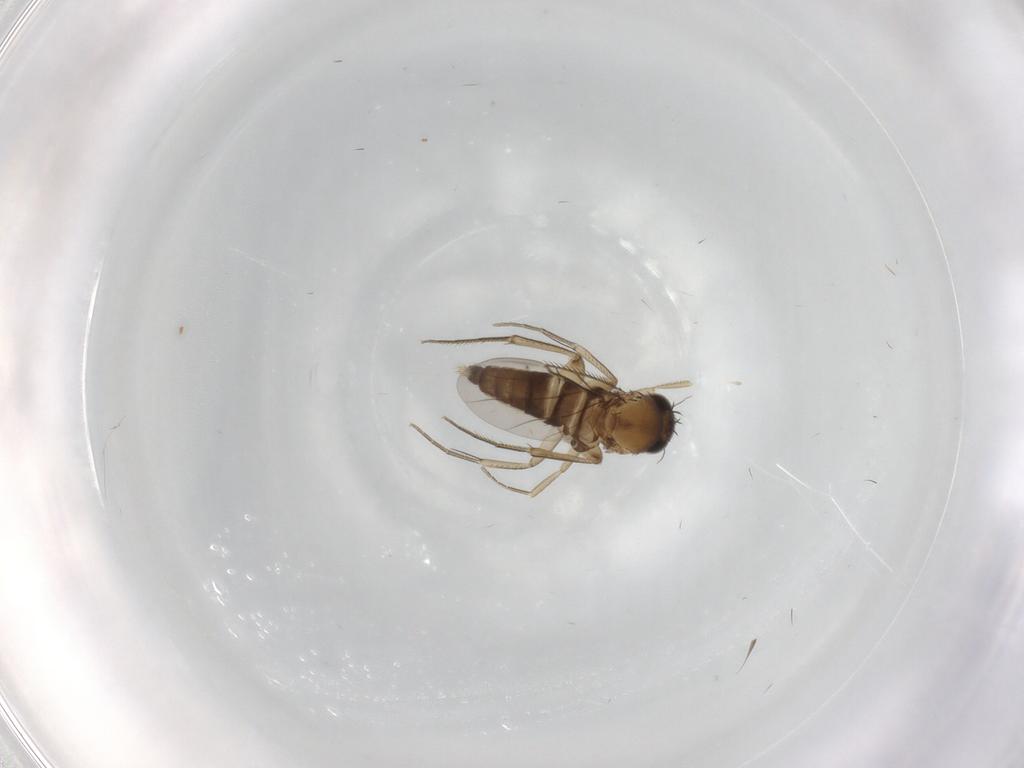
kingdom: Animalia
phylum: Arthropoda
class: Insecta
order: Diptera
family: Phoridae
